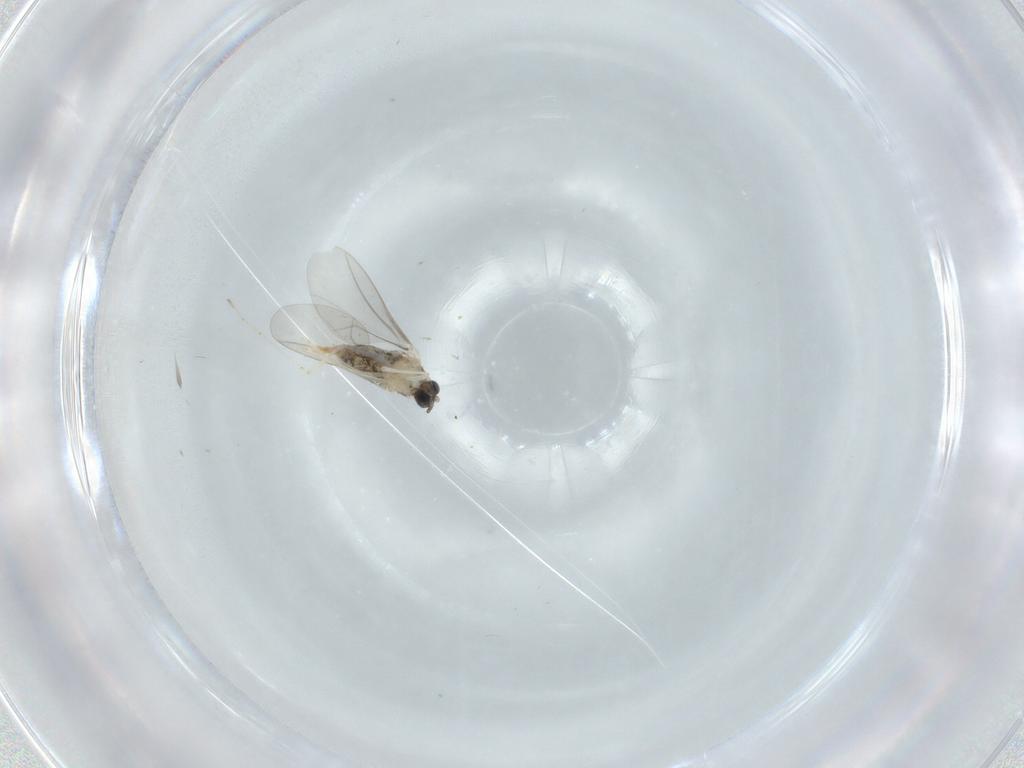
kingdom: Animalia
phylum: Arthropoda
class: Insecta
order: Diptera
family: Cecidomyiidae
